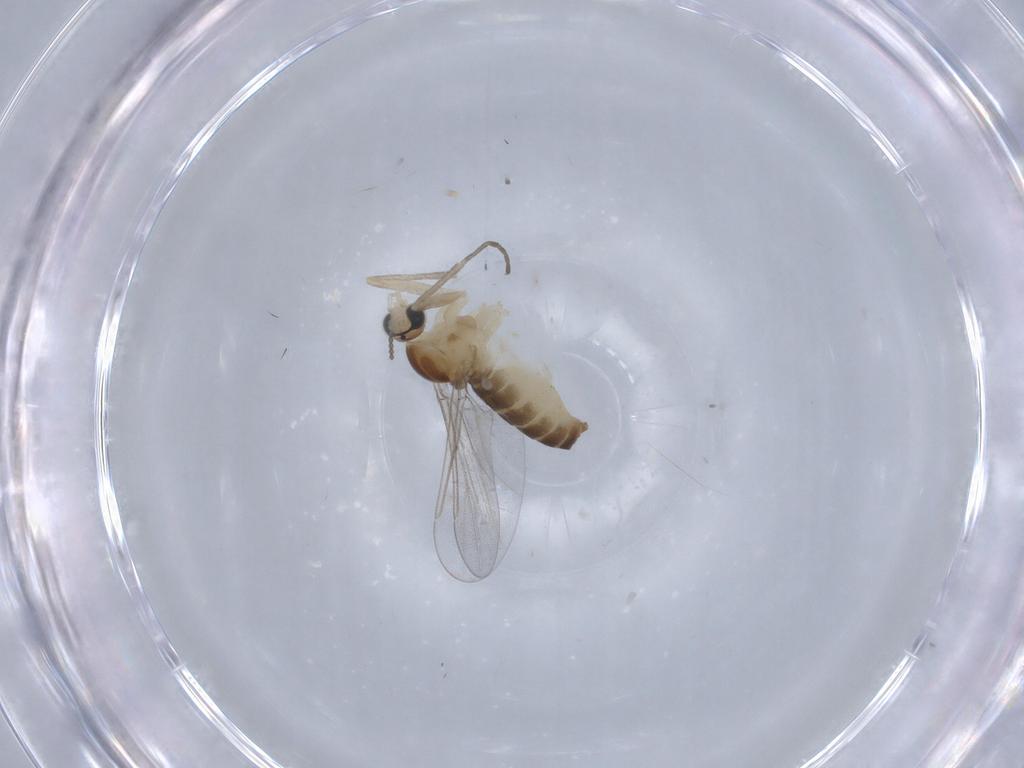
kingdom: Animalia
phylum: Arthropoda
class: Insecta
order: Diptera
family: Cecidomyiidae
